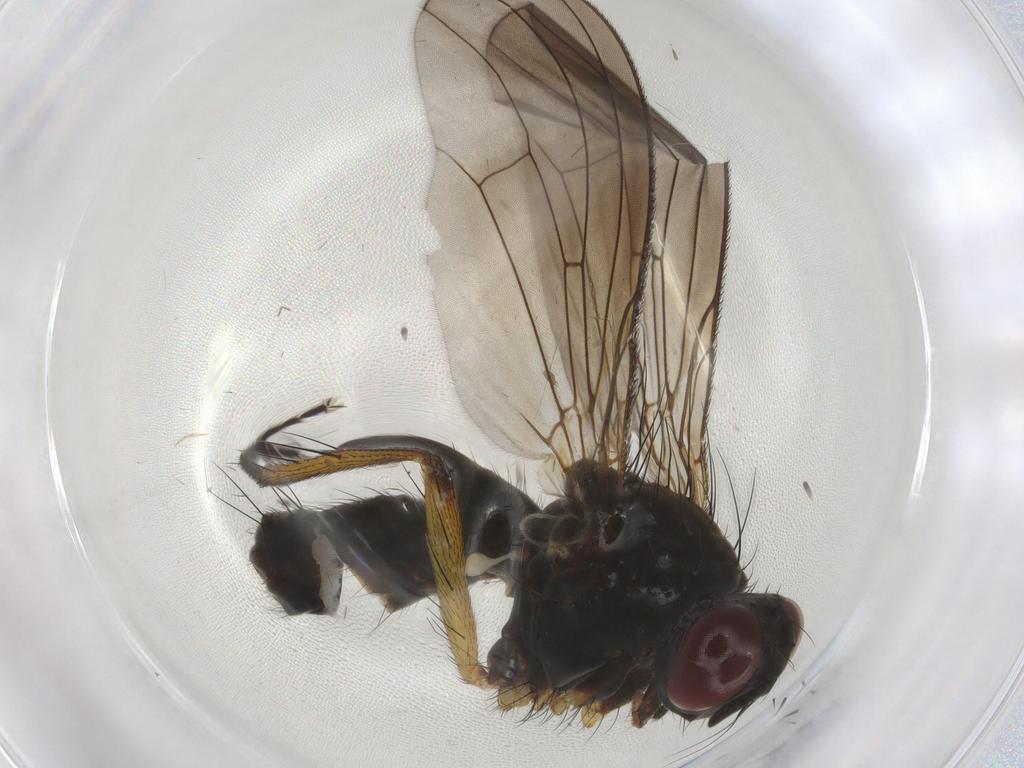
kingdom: Animalia
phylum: Arthropoda
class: Insecta
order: Diptera
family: Muscidae
